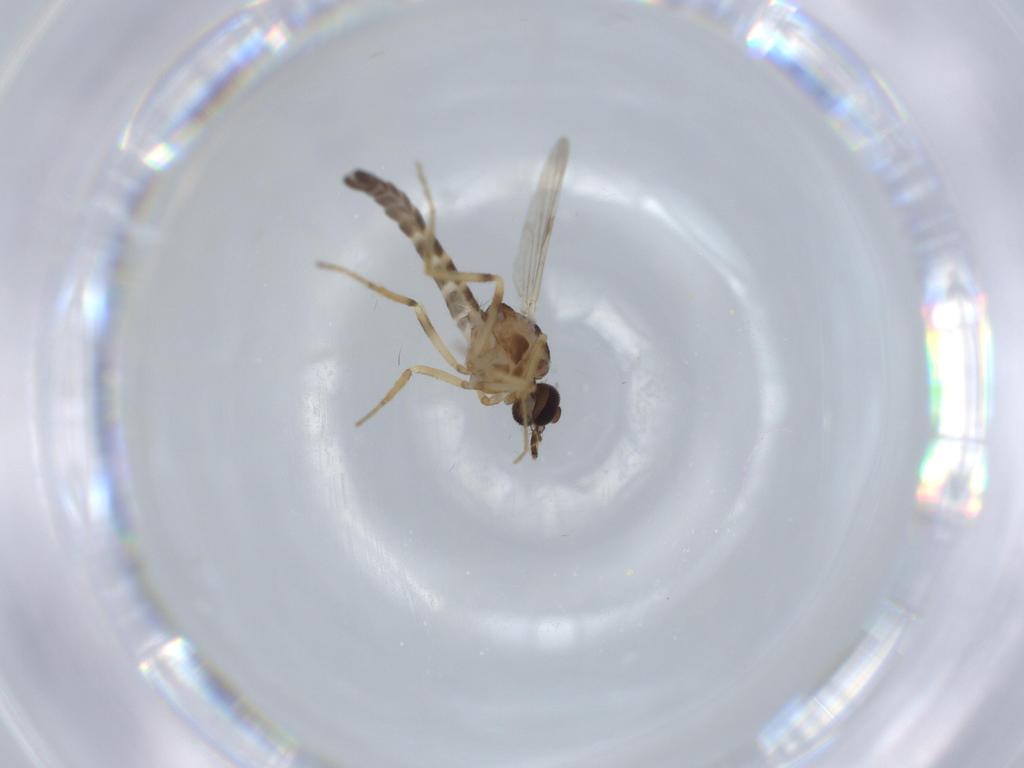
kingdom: Animalia
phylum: Arthropoda
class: Insecta
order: Diptera
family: Ceratopogonidae
